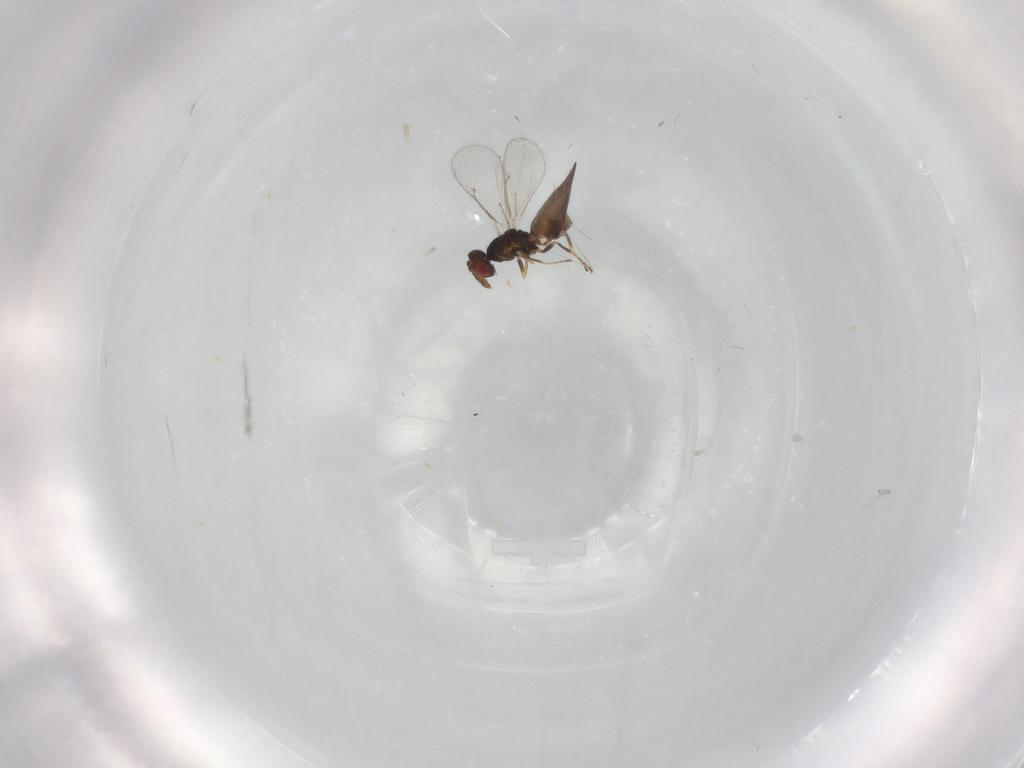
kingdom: Animalia
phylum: Arthropoda
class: Insecta
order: Hymenoptera
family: Eulophidae
